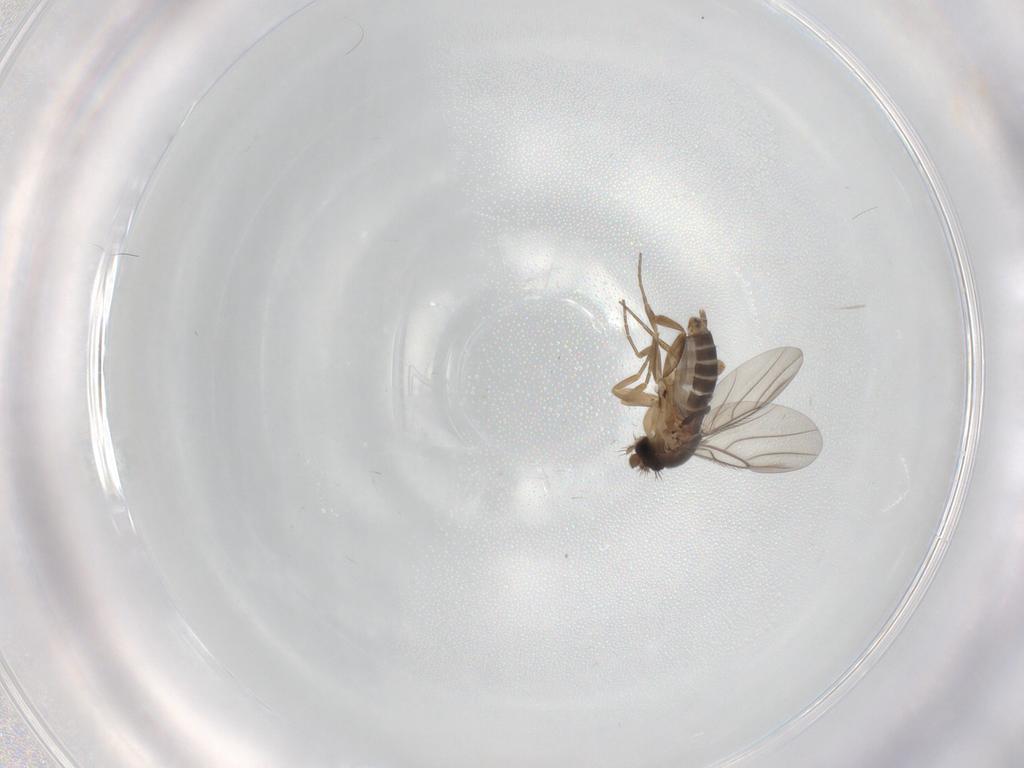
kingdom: Animalia
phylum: Arthropoda
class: Insecta
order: Diptera
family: Phoridae
